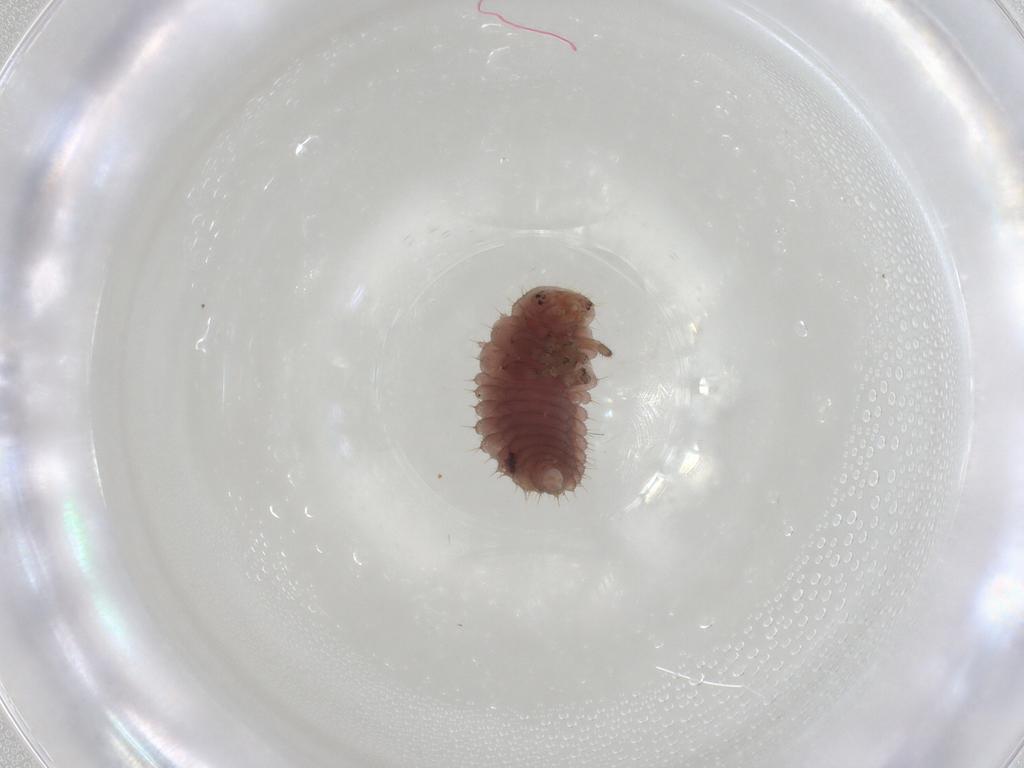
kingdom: Animalia
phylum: Arthropoda
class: Insecta
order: Coleoptera
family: Coccinellidae
